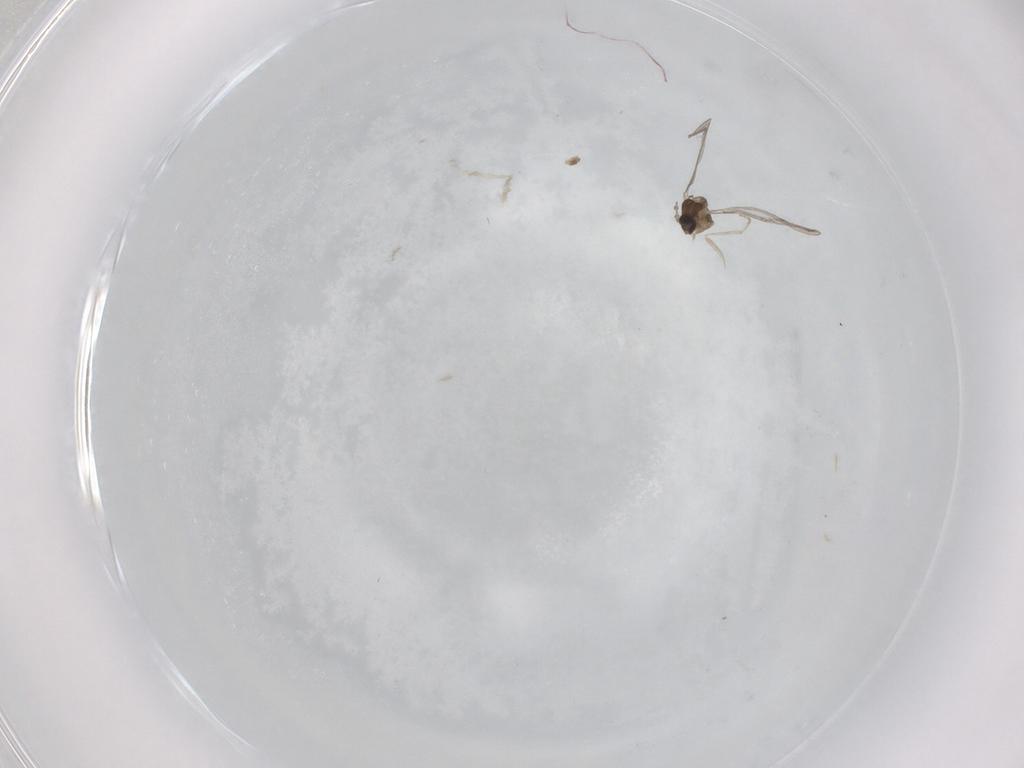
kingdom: Animalia
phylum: Arthropoda
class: Insecta
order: Diptera
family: Cecidomyiidae
